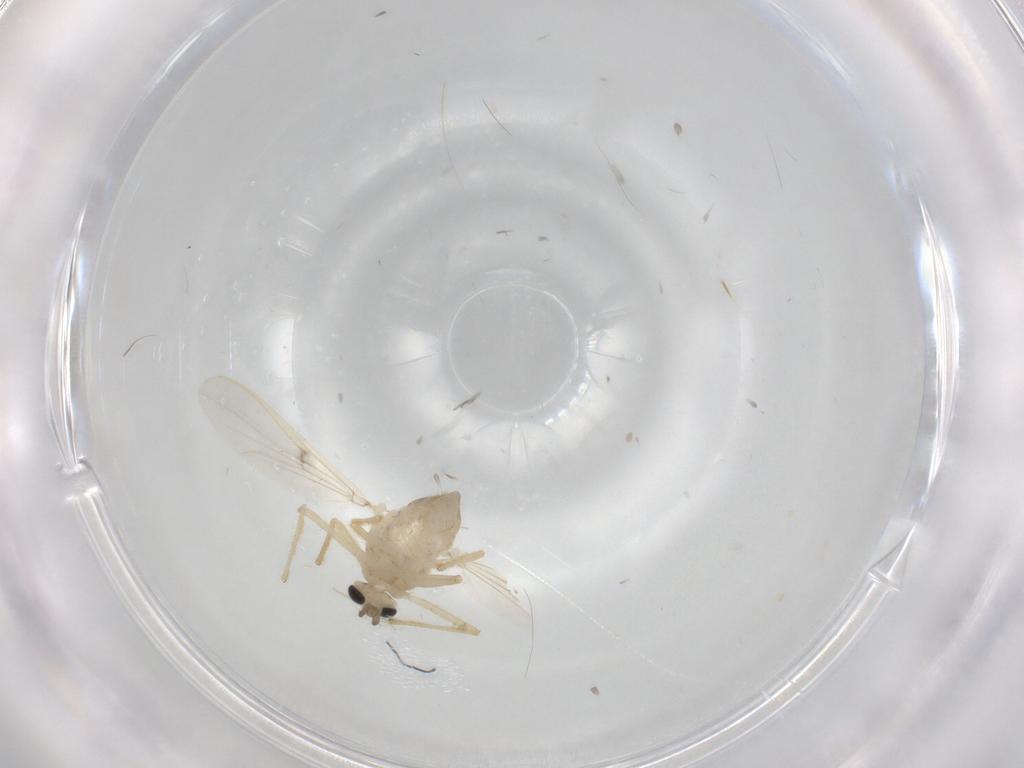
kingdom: Animalia
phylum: Arthropoda
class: Insecta
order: Diptera
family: Chironomidae
